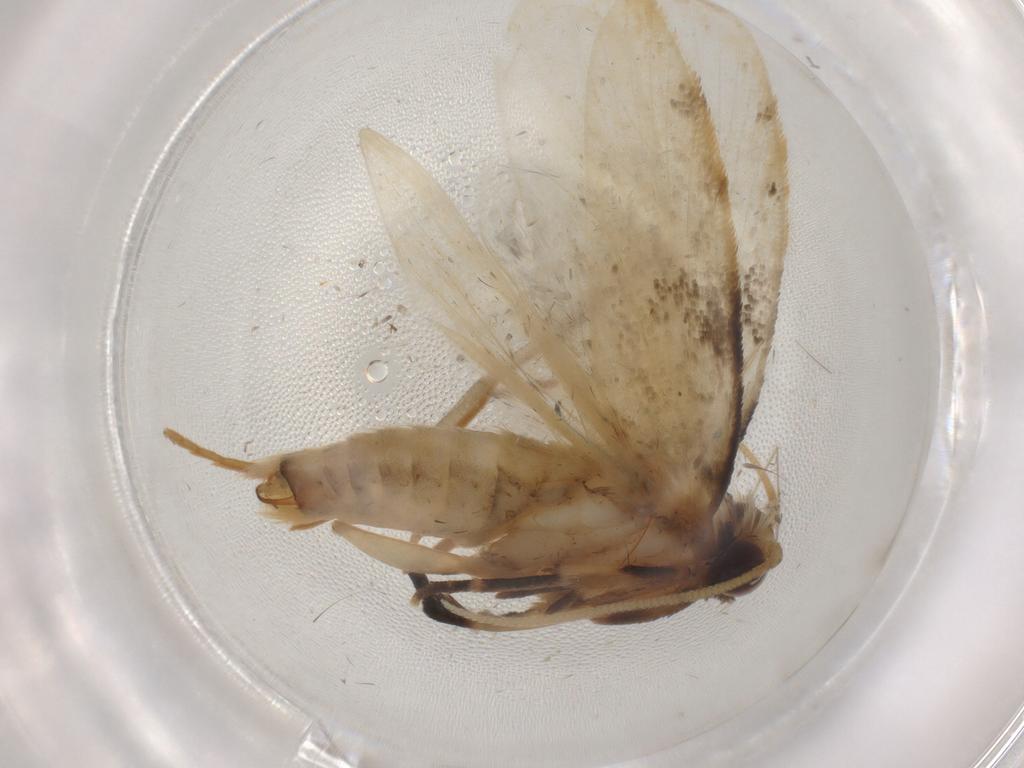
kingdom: Animalia
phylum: Arthropoda
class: Insecta
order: Lepidoptera
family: Tineidae
